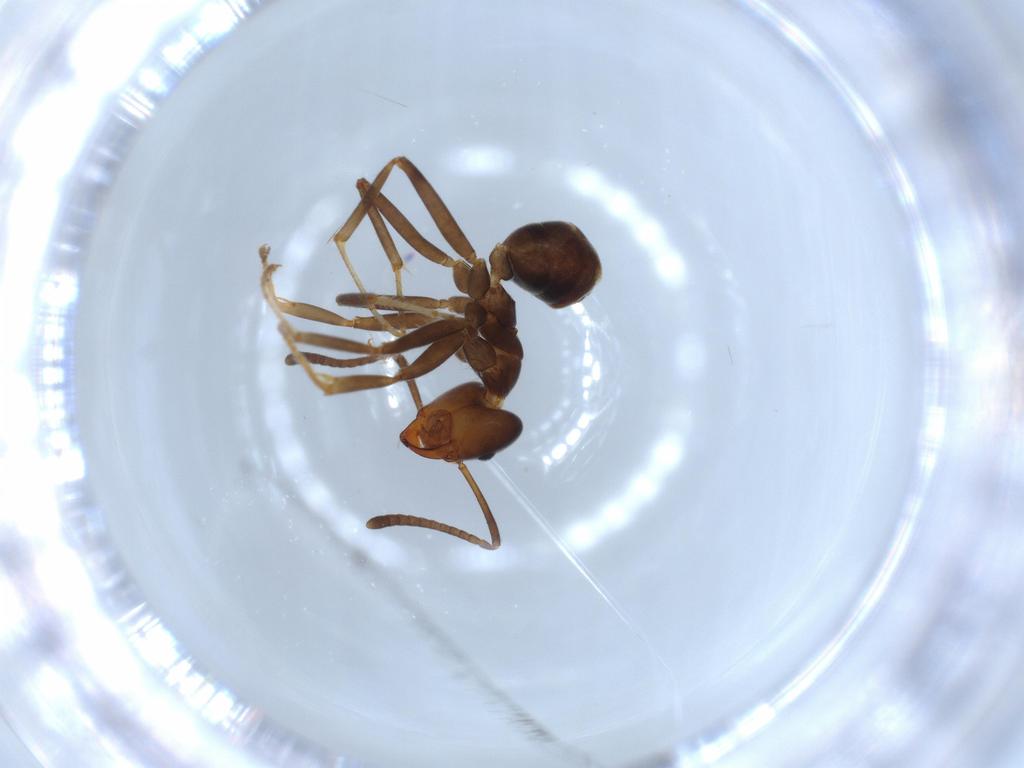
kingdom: Animalia
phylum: Arthropoda
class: Insecta
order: Hymenoptera
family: Formicidae
